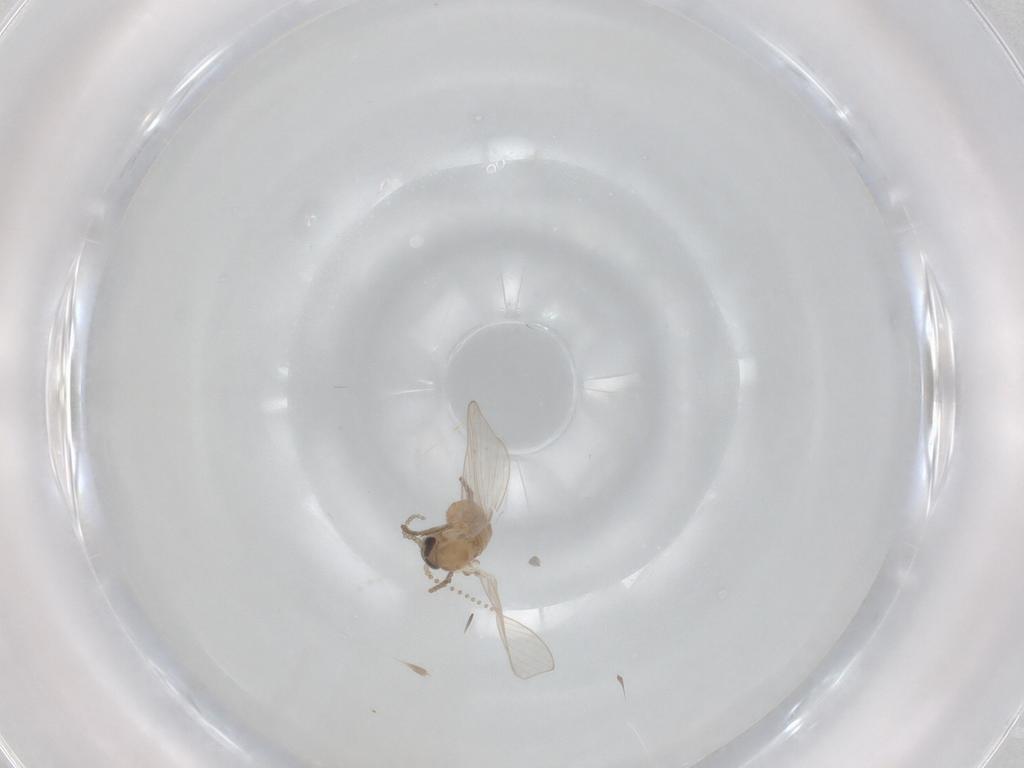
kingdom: Animalia
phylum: Arthropoda
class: Insecta
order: Diptera
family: Psychodidae
